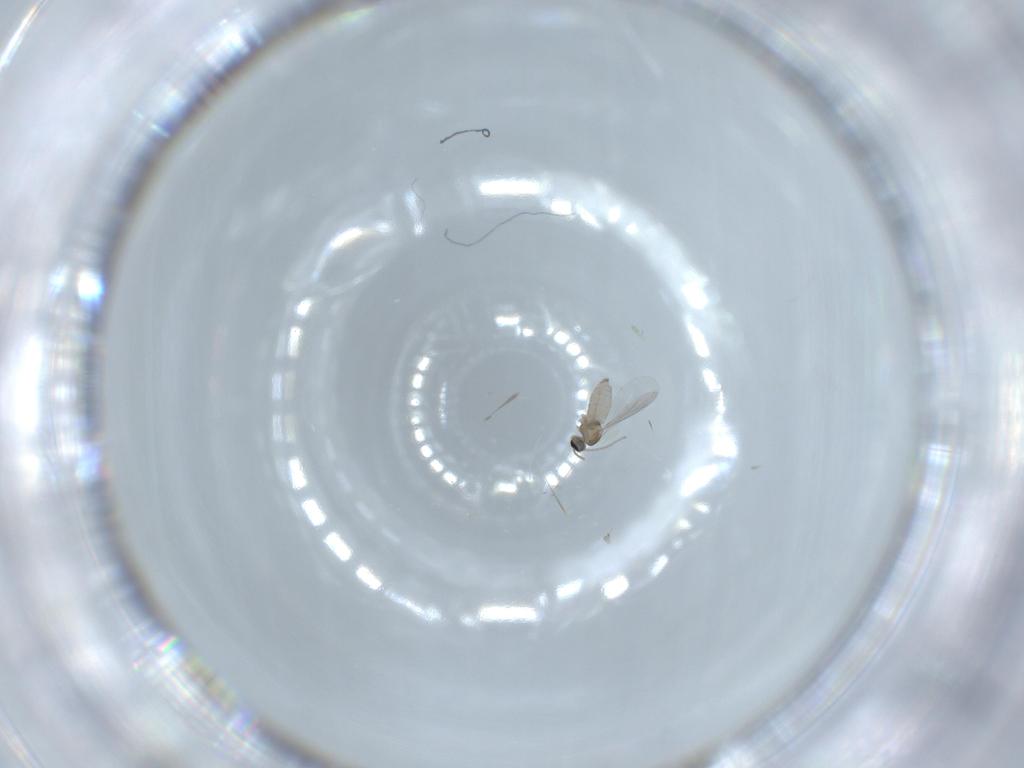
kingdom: Animalia
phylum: Arthropoda
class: Insecta
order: Diptera
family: Cecidomyiidae
